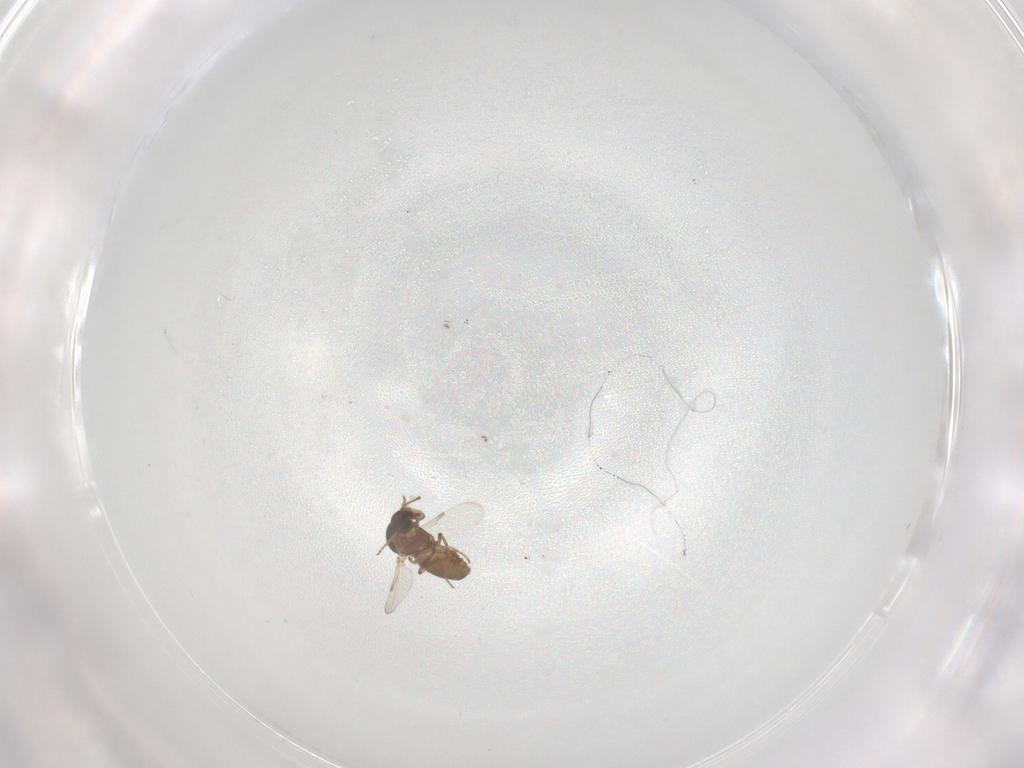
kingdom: Animalia
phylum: Arthropoda
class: Insecta
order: Diptera
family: Ceratopogonidae
